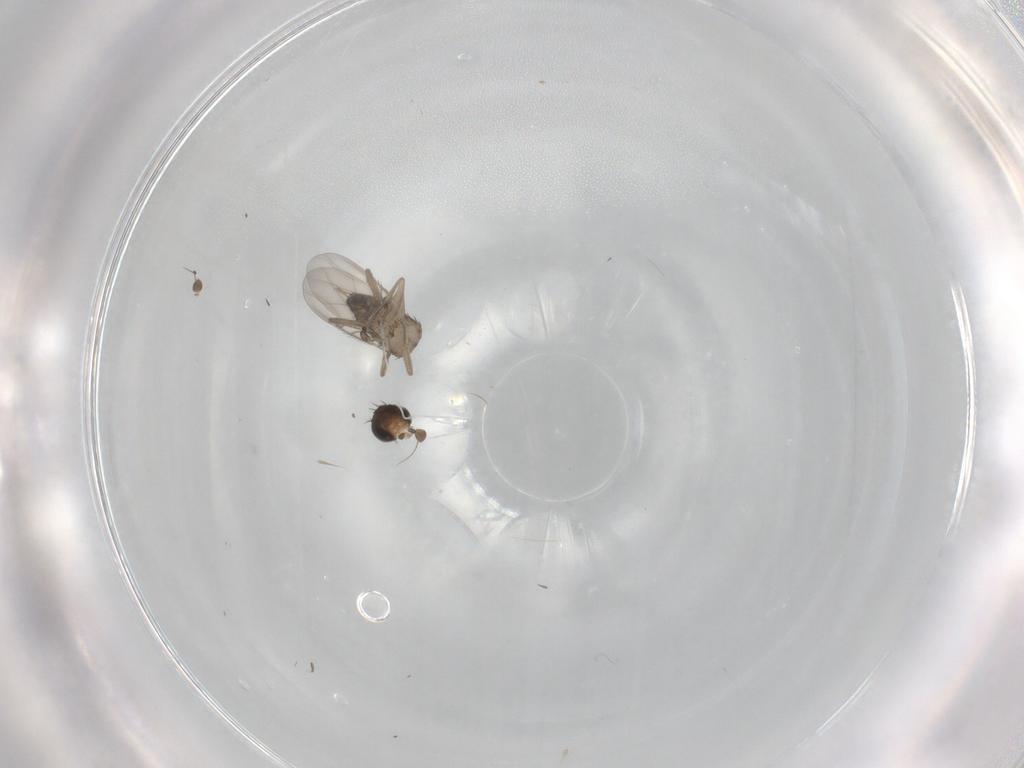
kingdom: Animalia
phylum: Arthropoda
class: Insecta
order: Diptera
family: Phoridae
